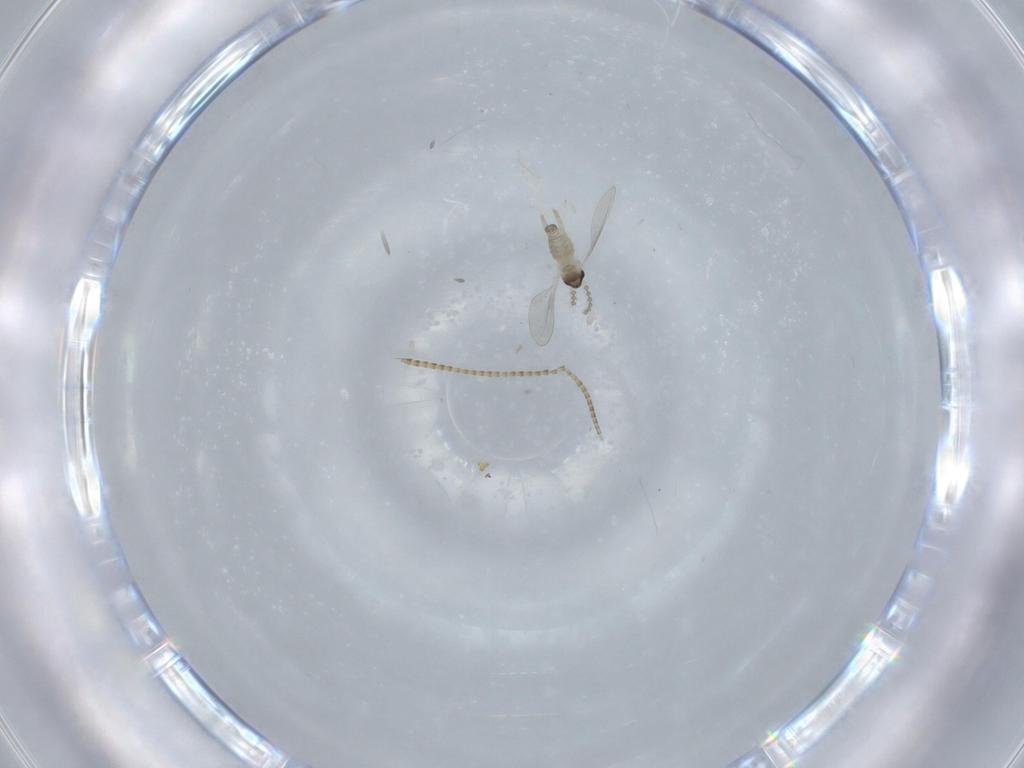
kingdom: Animalia
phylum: Arthropoda
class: Insecta
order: Diptera
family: Cecidomyiidae
